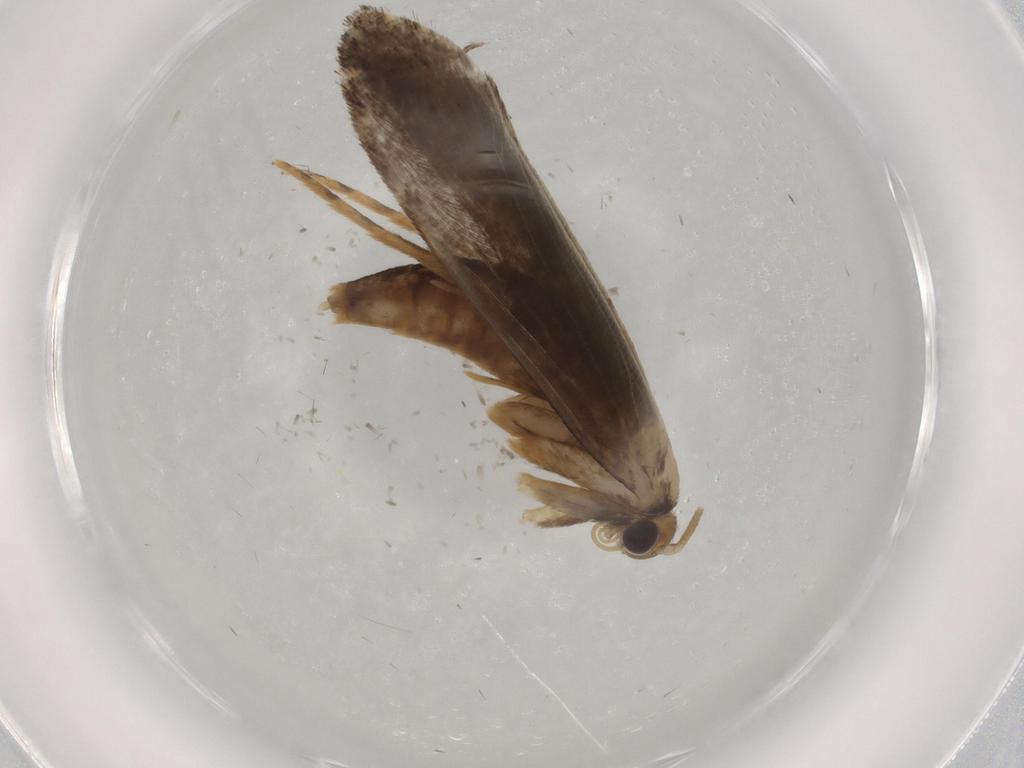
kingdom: Animalia
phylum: Arthropoda
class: Insecta
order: Lepidoptera
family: Tineidae
